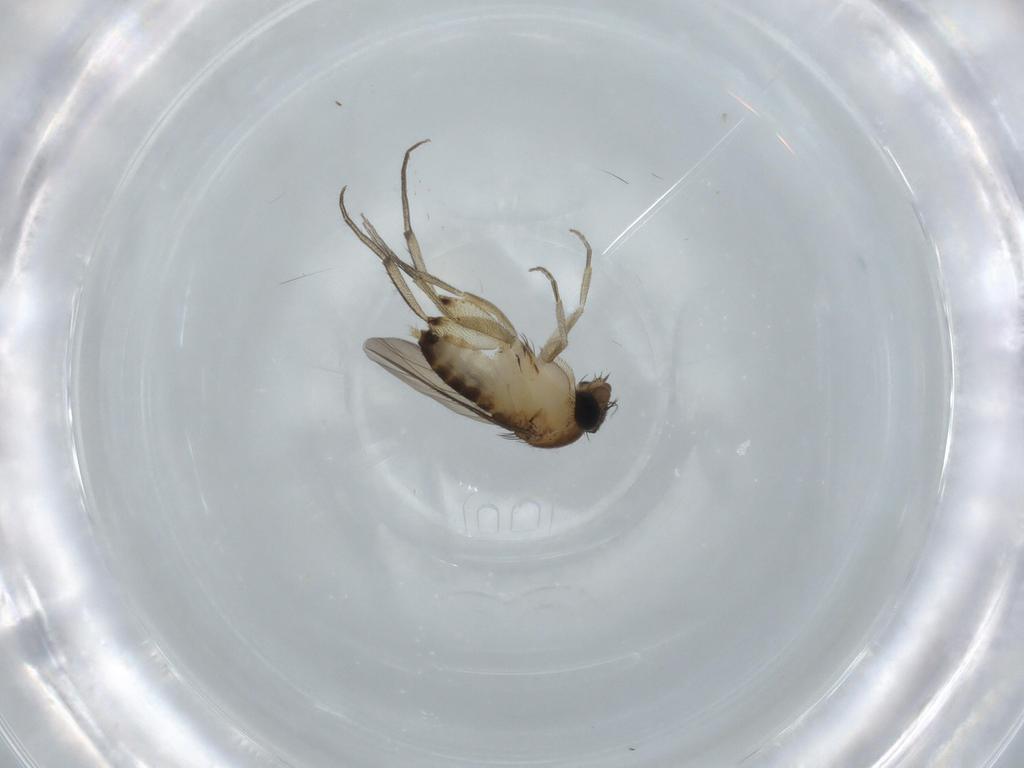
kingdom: Animalia
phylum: Arthropoda
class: Insecta
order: Diptera
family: Phoridae
